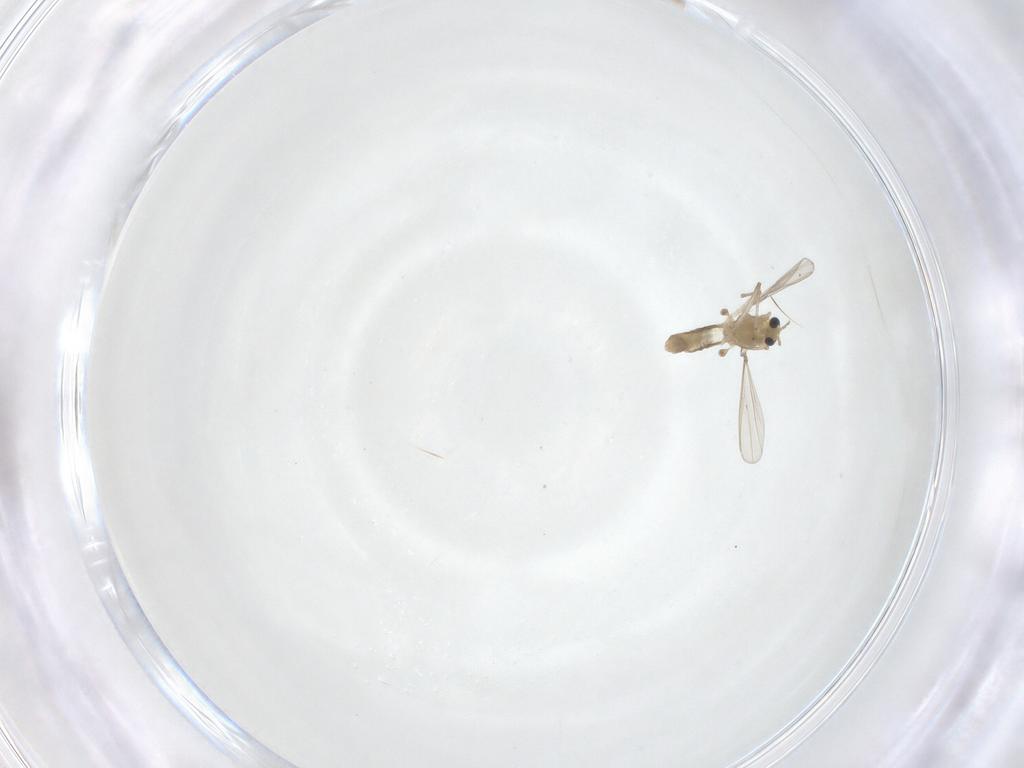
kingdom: Animalia
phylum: Arthropoda
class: Insecta
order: Diptera
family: Chironomidae
